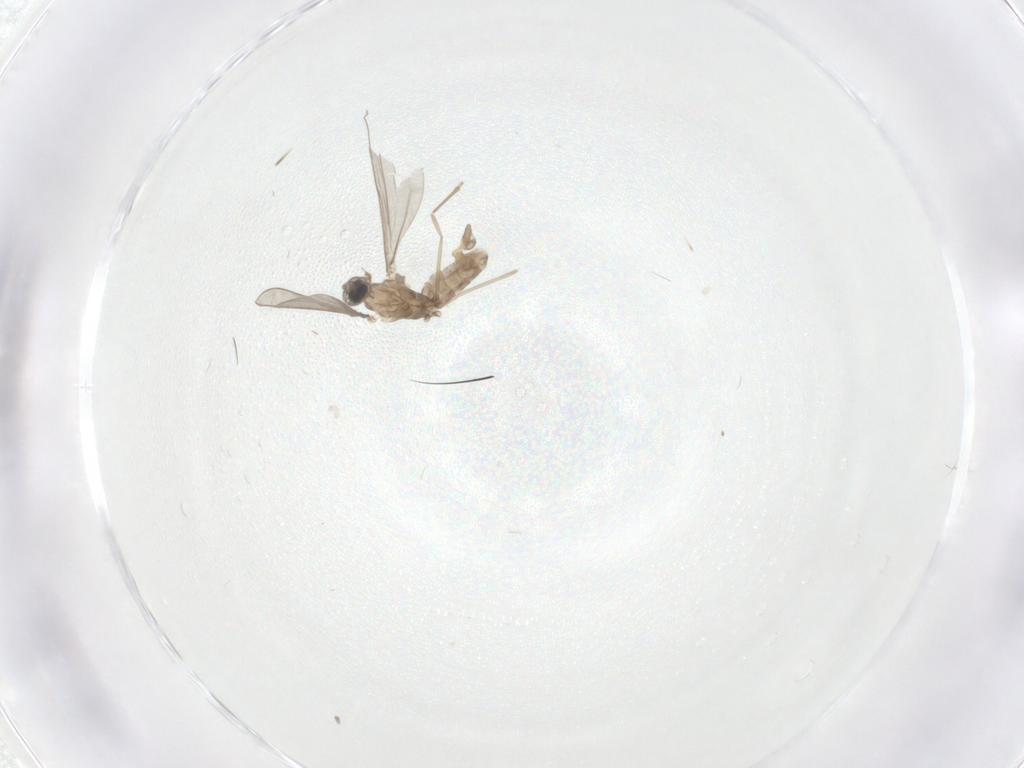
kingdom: Animalia
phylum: Arthropoda
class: Insecta
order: Diptera
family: Cecidomyiidae
